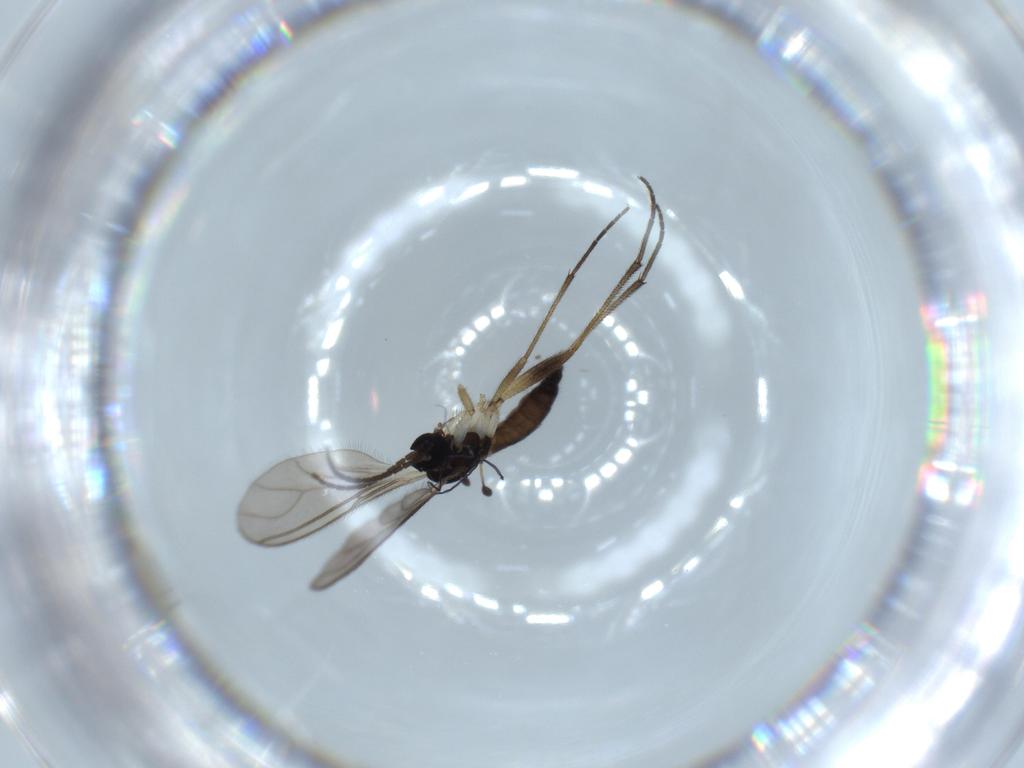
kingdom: Animalia
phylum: Arthropoda
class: Insecta
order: Diptera
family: Sciaridae
